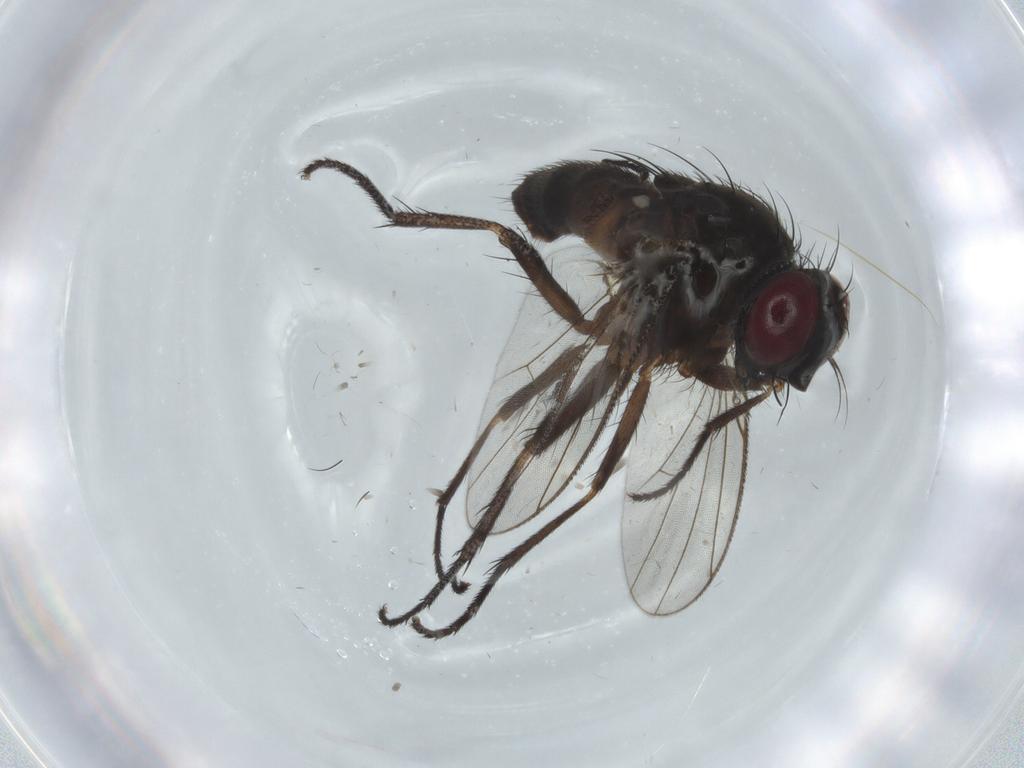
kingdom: Animalia
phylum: Arthropoda
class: Insecta
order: Diptera
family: Muscidae
